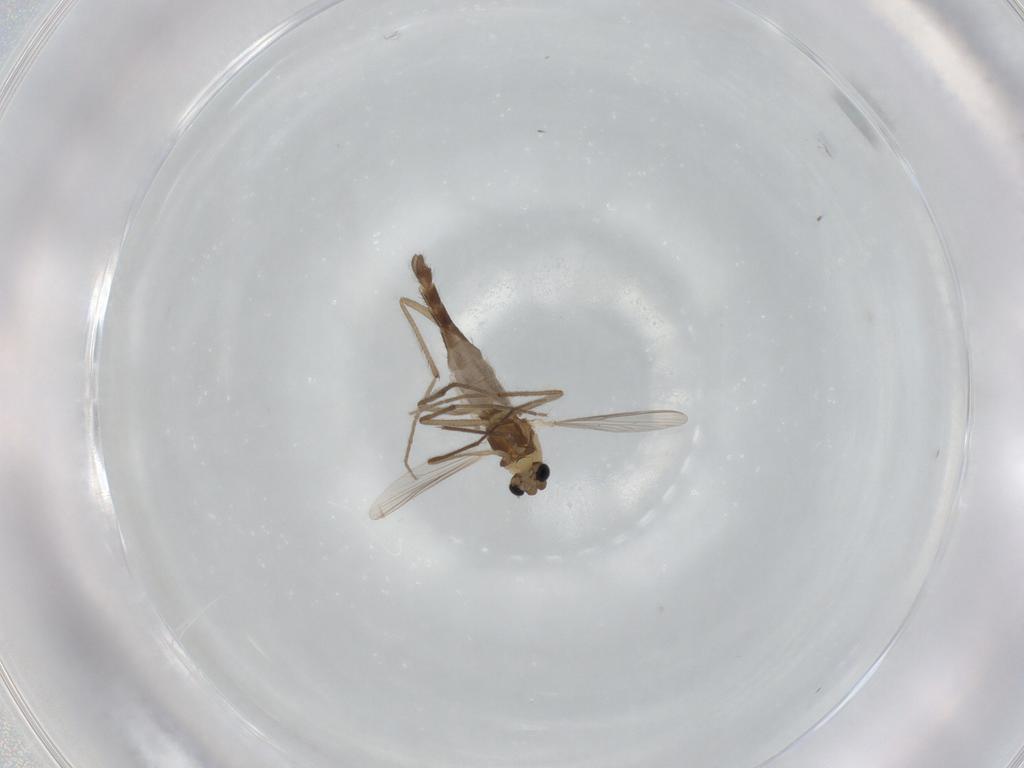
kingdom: Animalia
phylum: Arthropoda
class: Insecta
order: Diptera
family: Chironomidae
